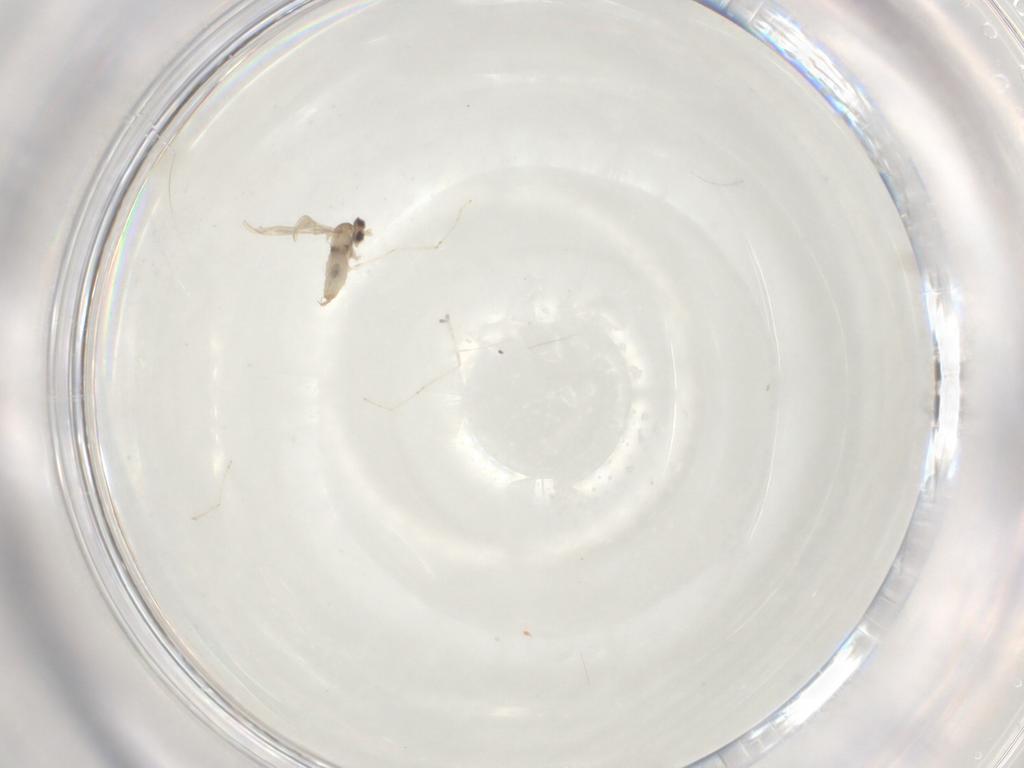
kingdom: Animalia
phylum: Arthropoda
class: Insecta
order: Diptera
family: Cecidomyiidae
